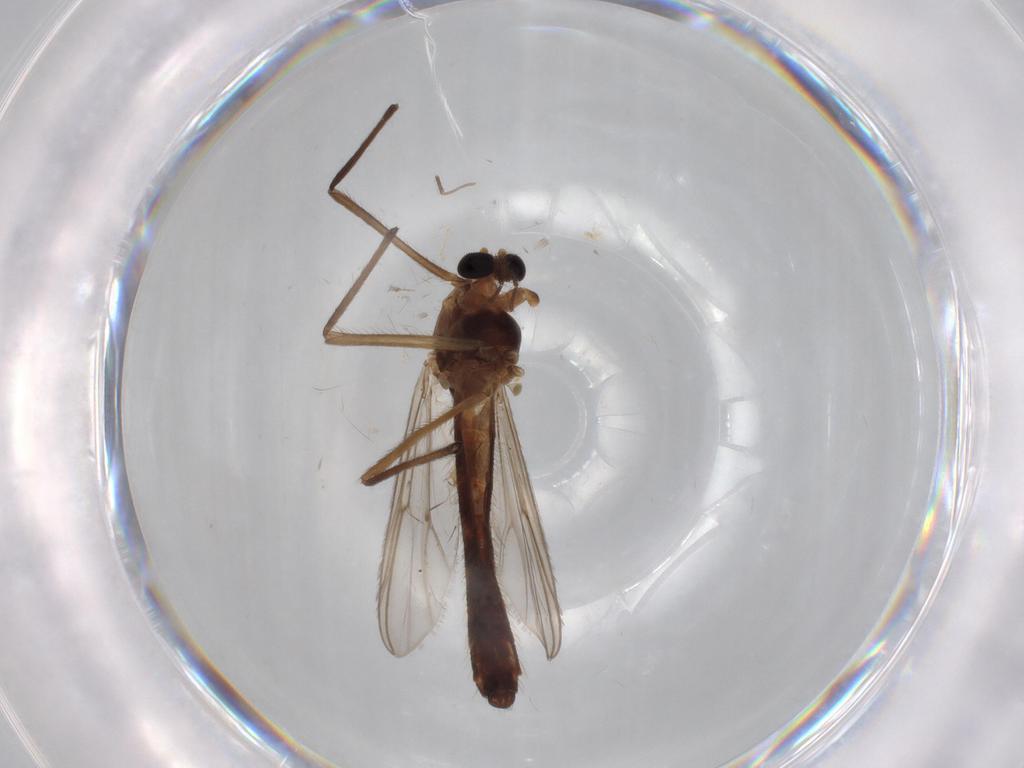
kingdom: Animalia
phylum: Arthropoda
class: Insecta
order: Diptera
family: Chironomidae
